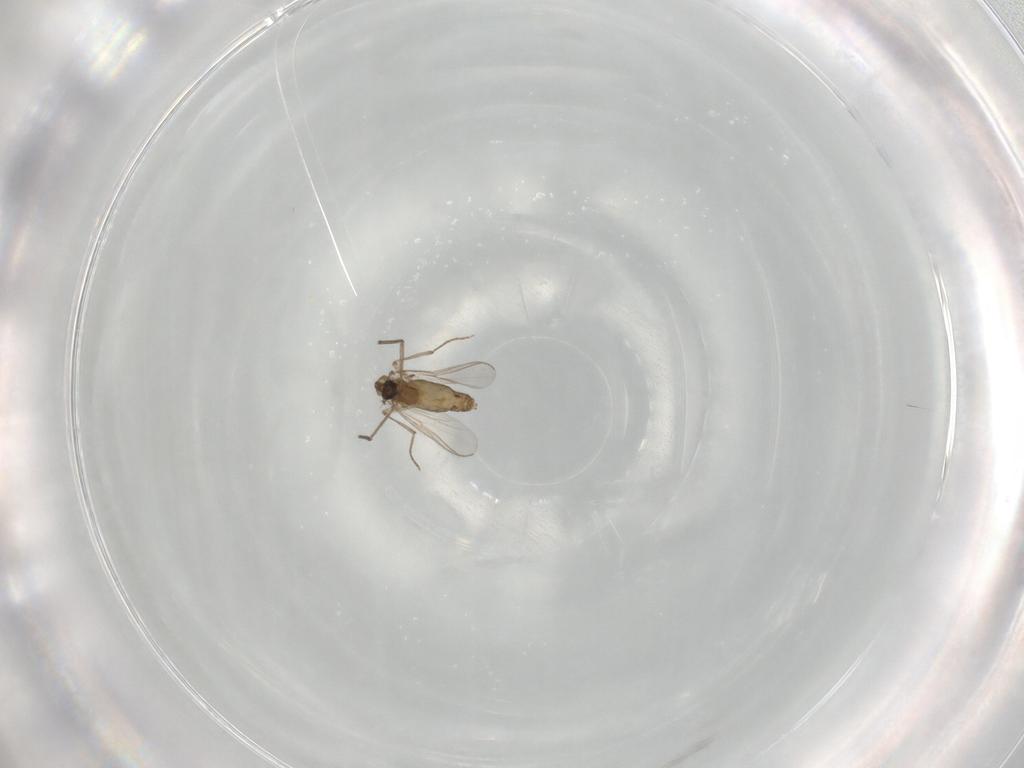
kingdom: Animalia
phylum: Arthropoda
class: Insecta
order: Diptera
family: Chironomidae
